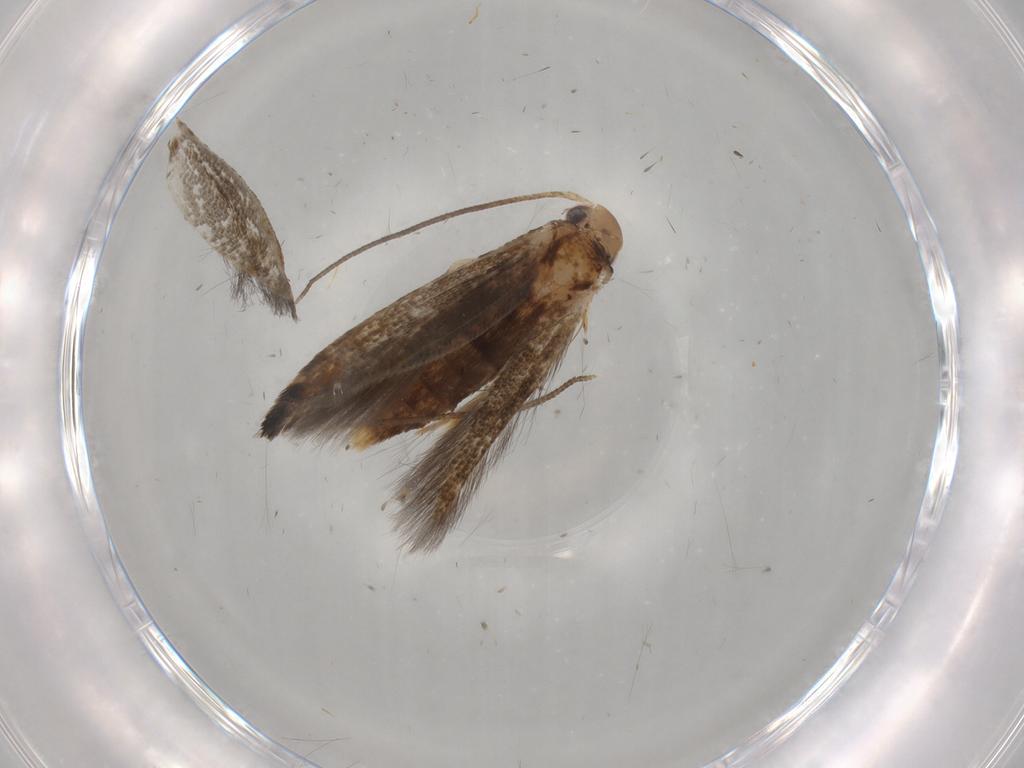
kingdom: Animalia
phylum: Arthropoda
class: Insecta
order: Lepidoptera
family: Momphidae
